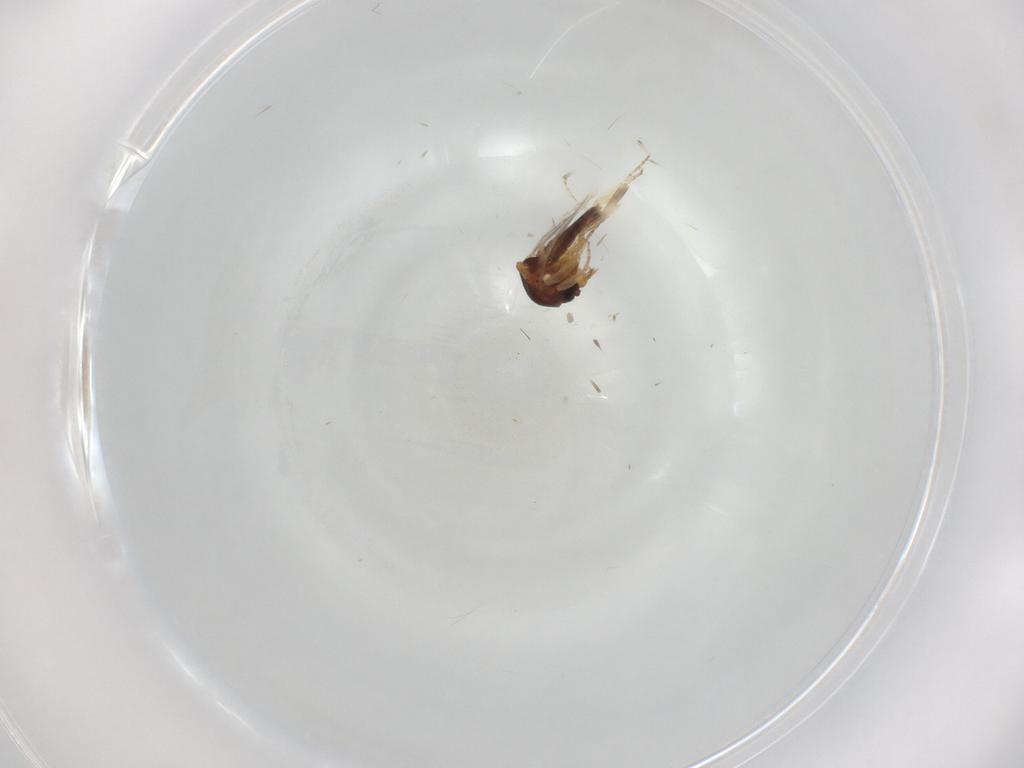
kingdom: Animalia
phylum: Arthropoda
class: Insecta
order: Diptera
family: Ceratopogonidae
